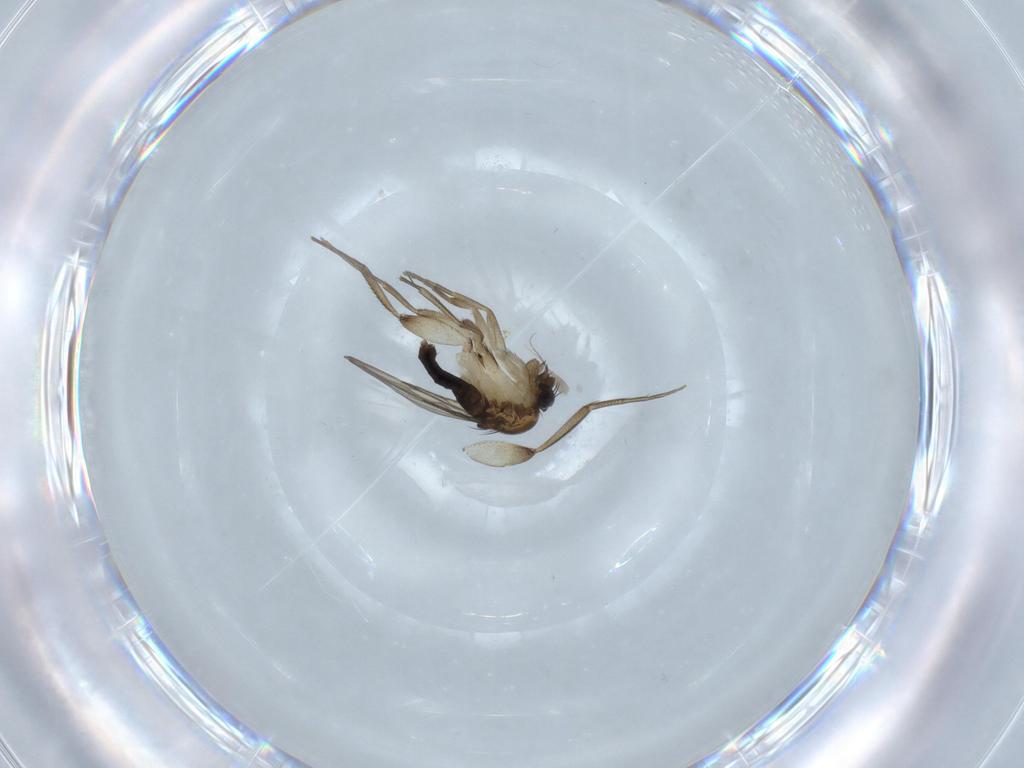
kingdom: Animalia
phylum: Arthropoda
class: Insecta
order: Diptera
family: Phoridae
